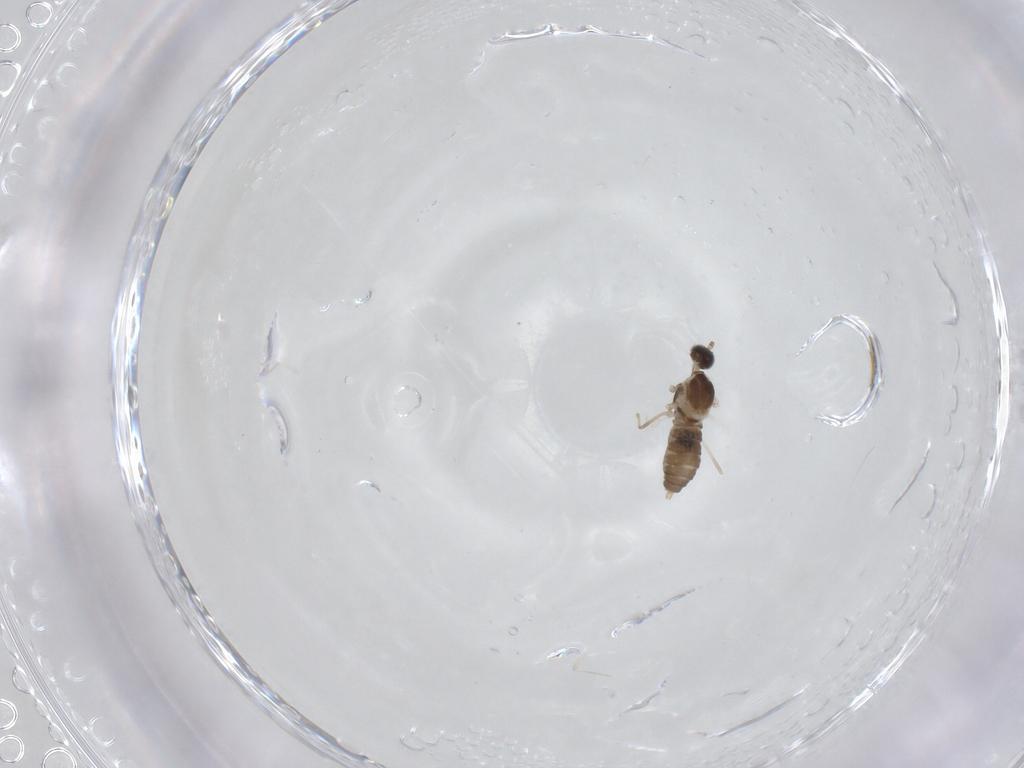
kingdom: Animalia
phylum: Arthropoda
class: Insecta
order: Diptera
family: Cecidomyiidae
